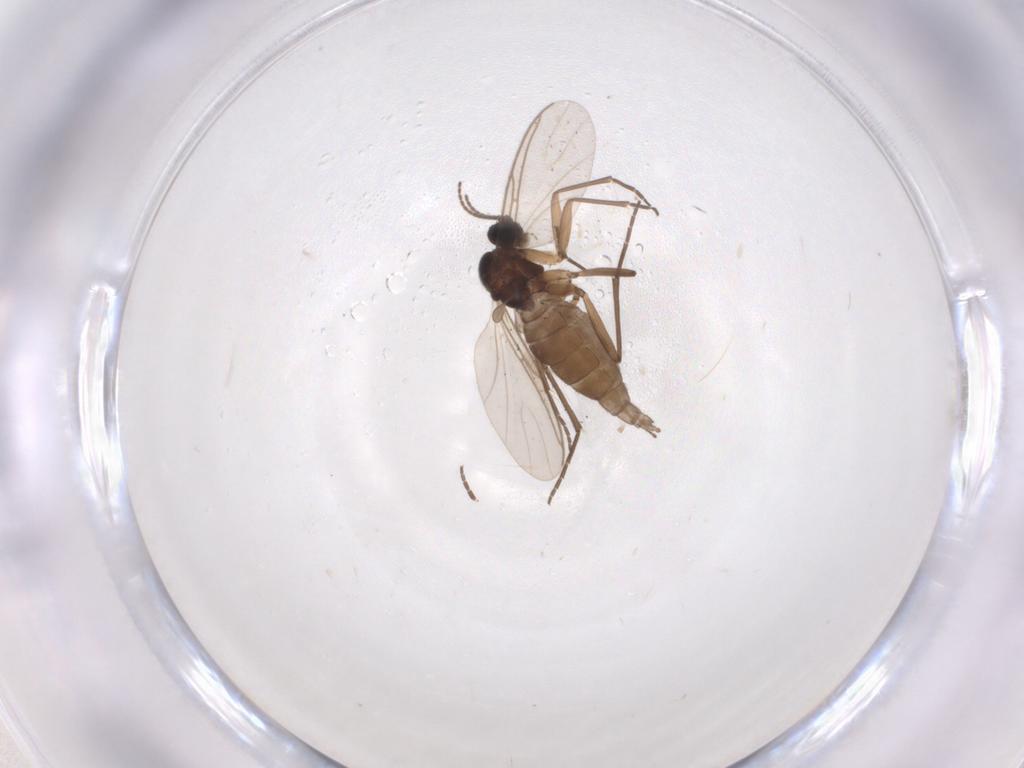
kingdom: Animalia
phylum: Arthropoda
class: Insecta
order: Diptera
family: Sciaridae
